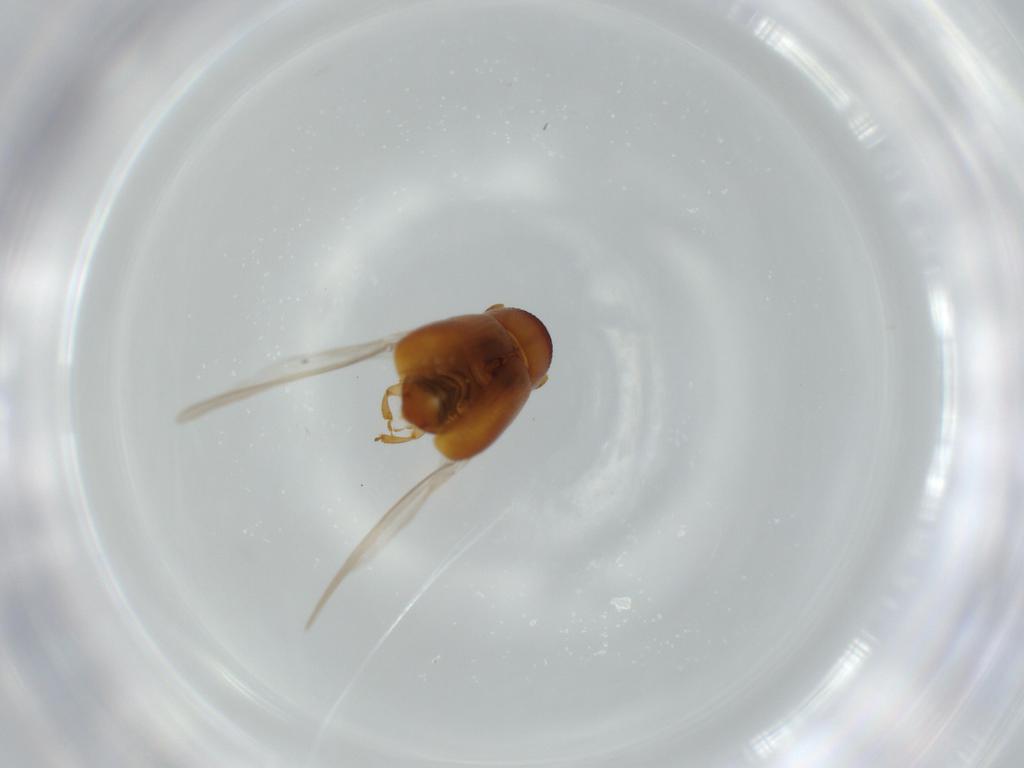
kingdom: Animalia
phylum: Arthropoda
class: Insecta
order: Coleoptera
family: Curculionidae
